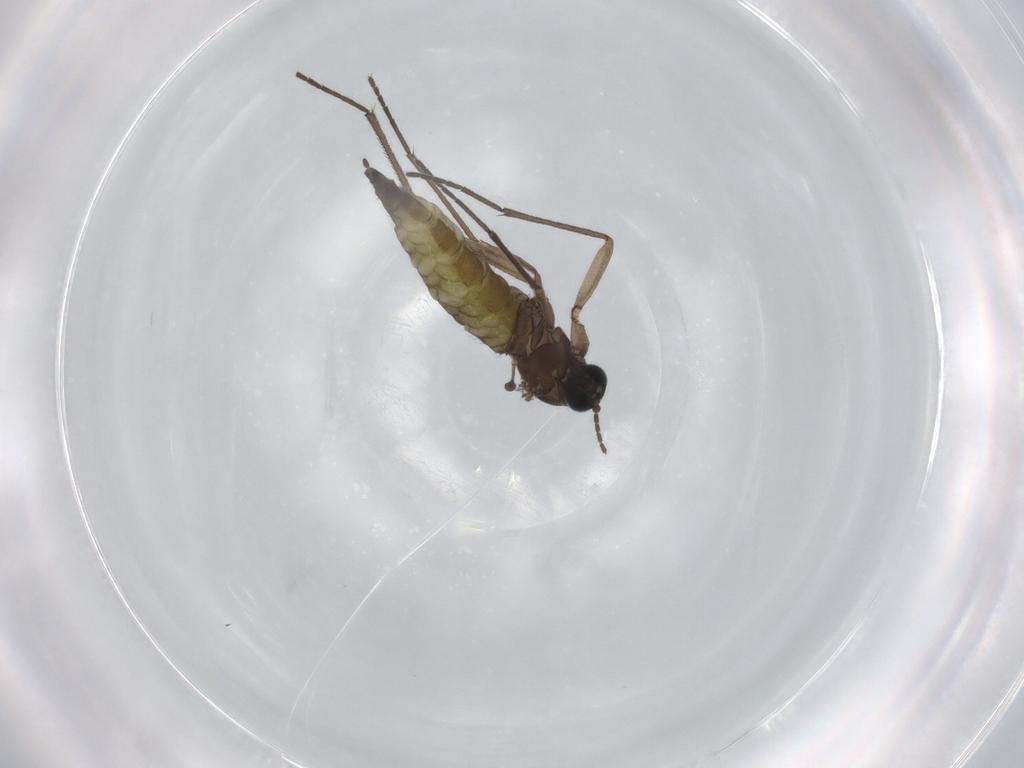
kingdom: Animalia
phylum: Arthropoda
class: Insecta
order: Diptera
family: Sciaridae
